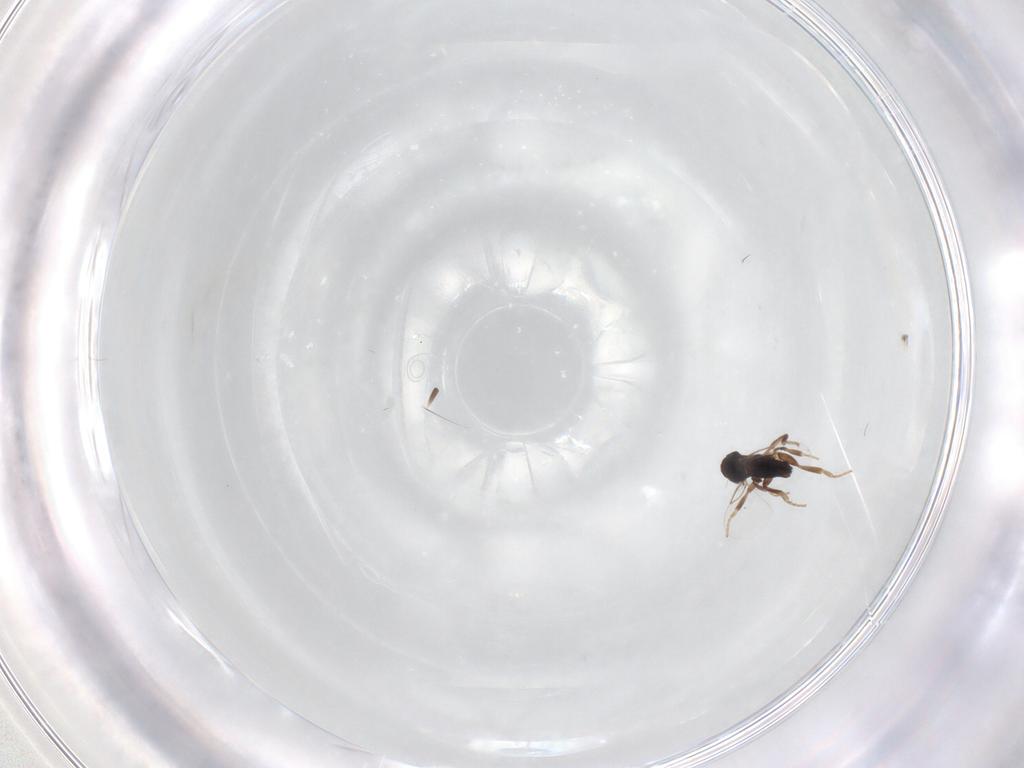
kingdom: Animalia
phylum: Arthropoda
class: Insecta
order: Diptera
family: Phoridae
